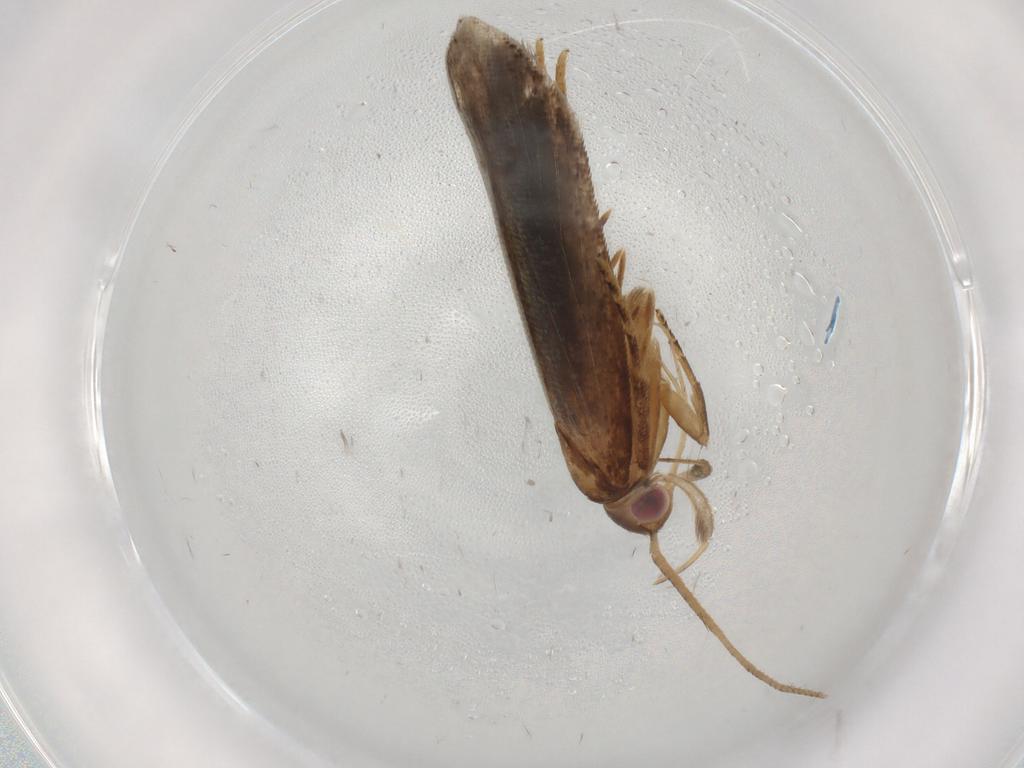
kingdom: Animalia
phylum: Arthropoda
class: Insecta
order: Lepidoptera
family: Gelechiidae
